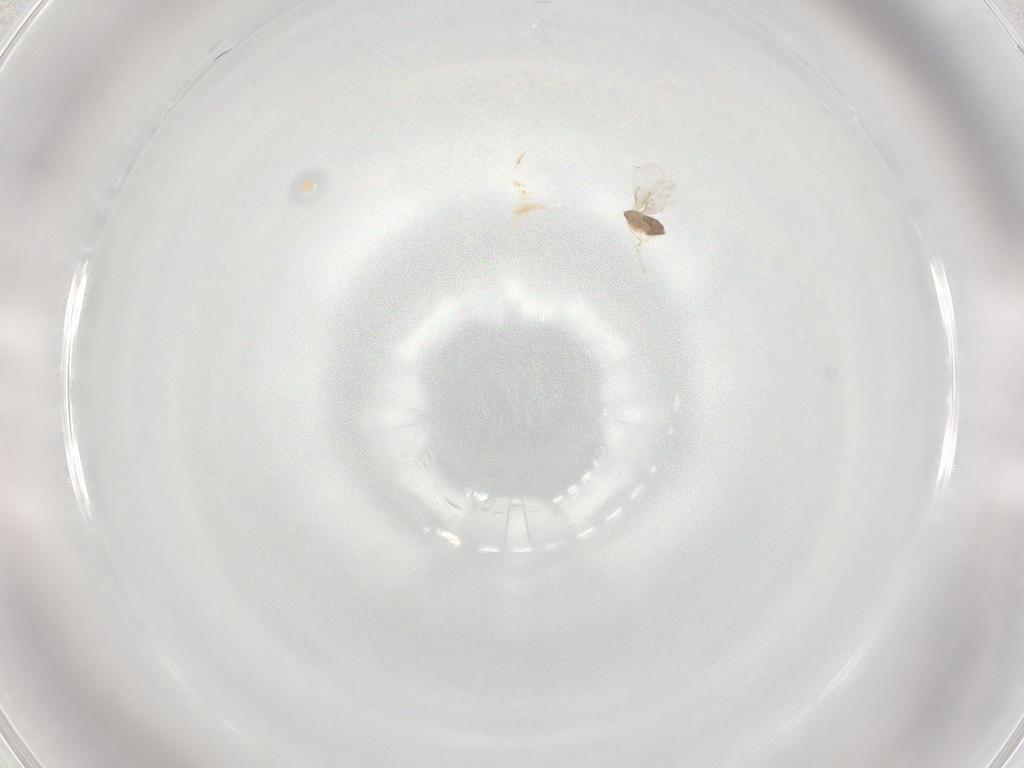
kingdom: Animalia
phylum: Arthropoda
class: Insecta
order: Hymenoptera
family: Trichogrammatidae
